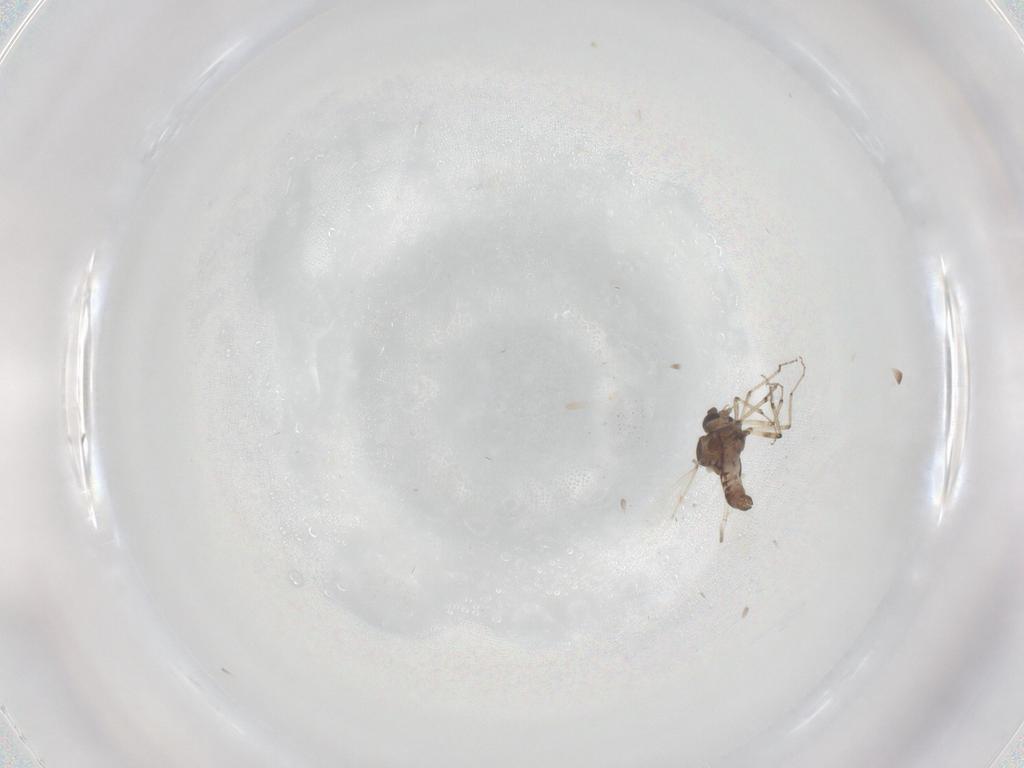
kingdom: Animalia
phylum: Arthropoda
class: Insecta
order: Diptera
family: Ceratopogonidae
